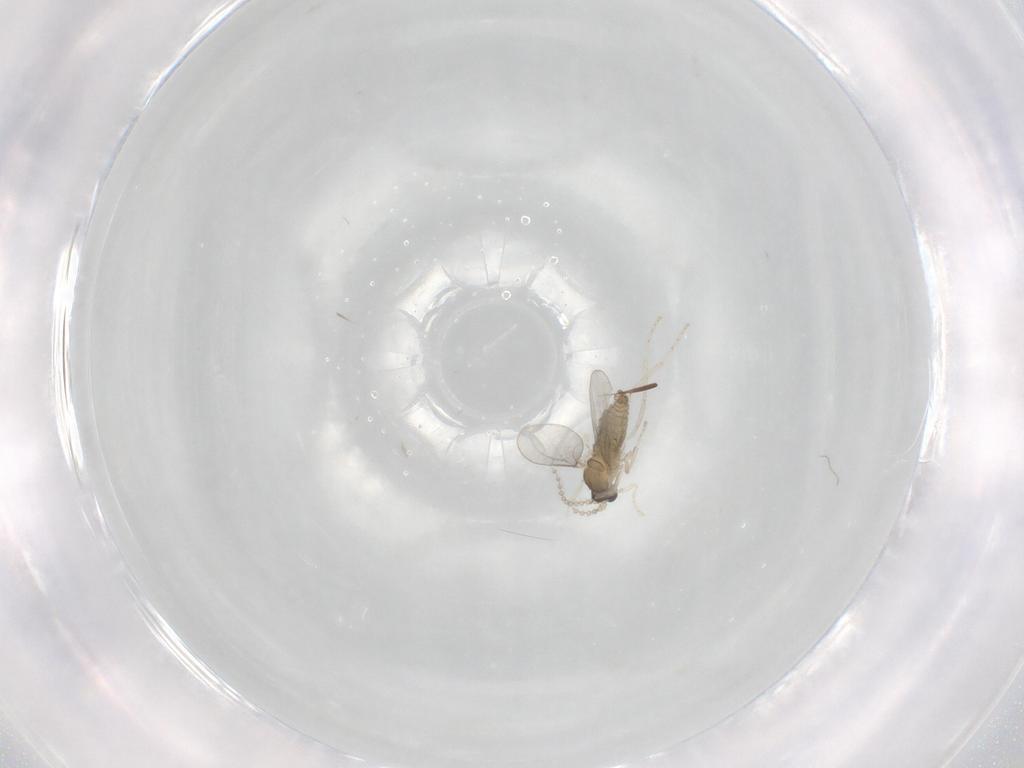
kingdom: Animalia
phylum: Arthropoda
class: Insecta
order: Diptera
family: Cecidomyiidae
